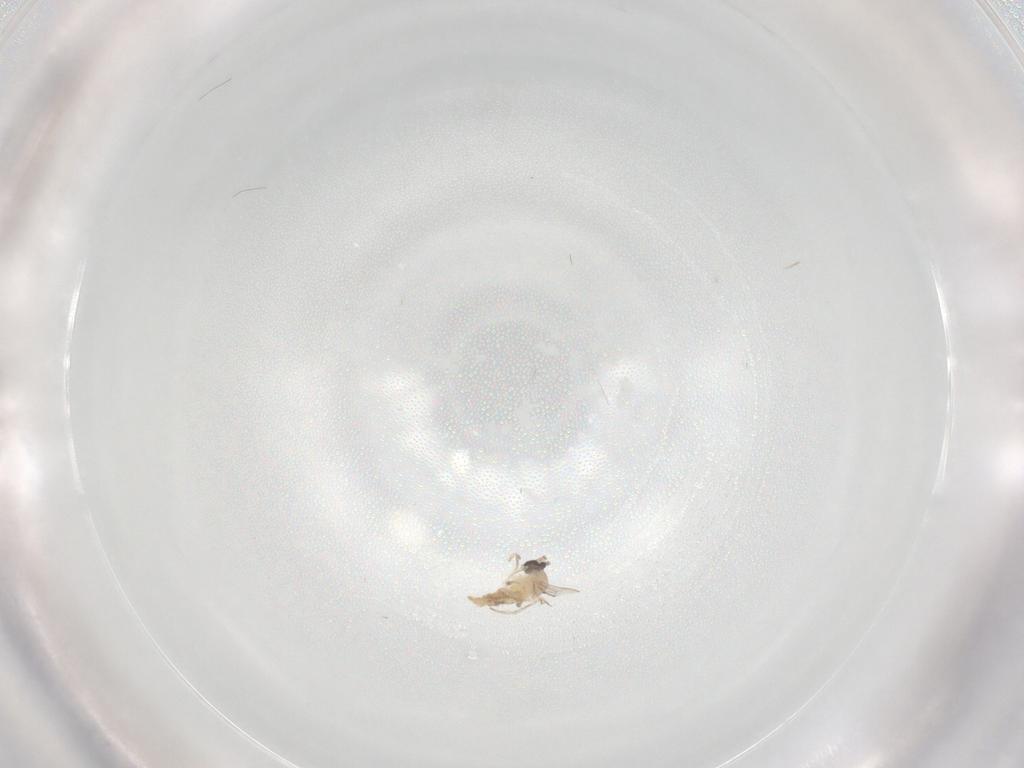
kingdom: Animalia
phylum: Arthropoda
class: Insecta
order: Diptera
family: Cecidomyiidae
